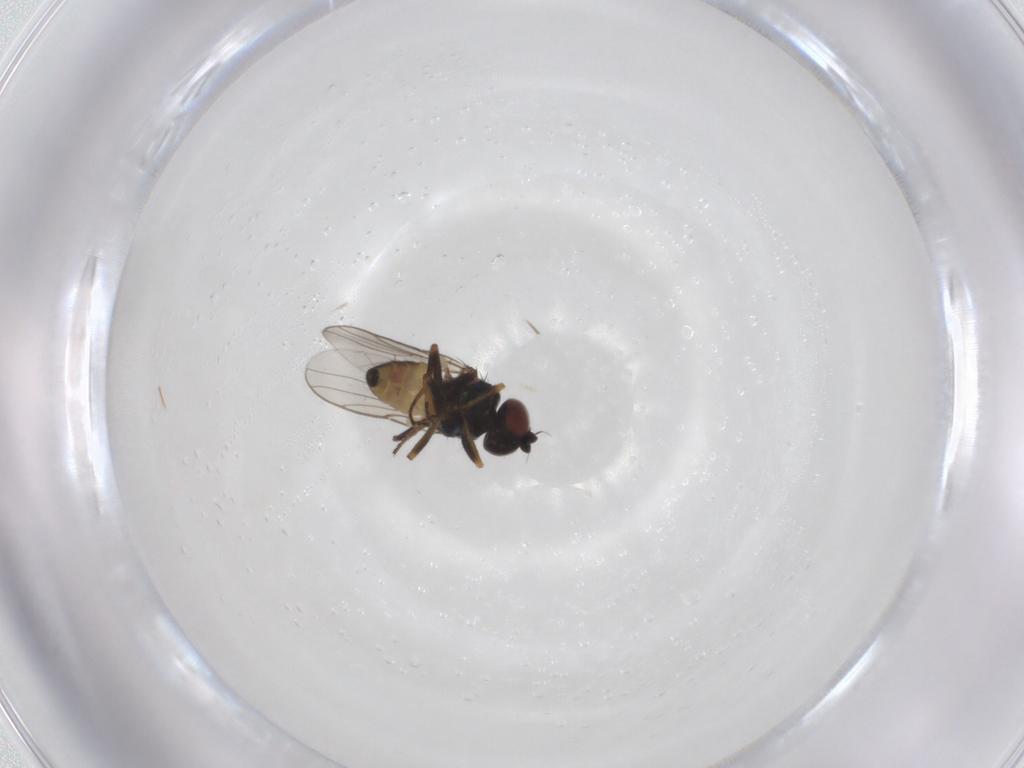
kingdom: Animalia
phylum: Arthropoda
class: Insecta
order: Diptera
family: Chloropidae
